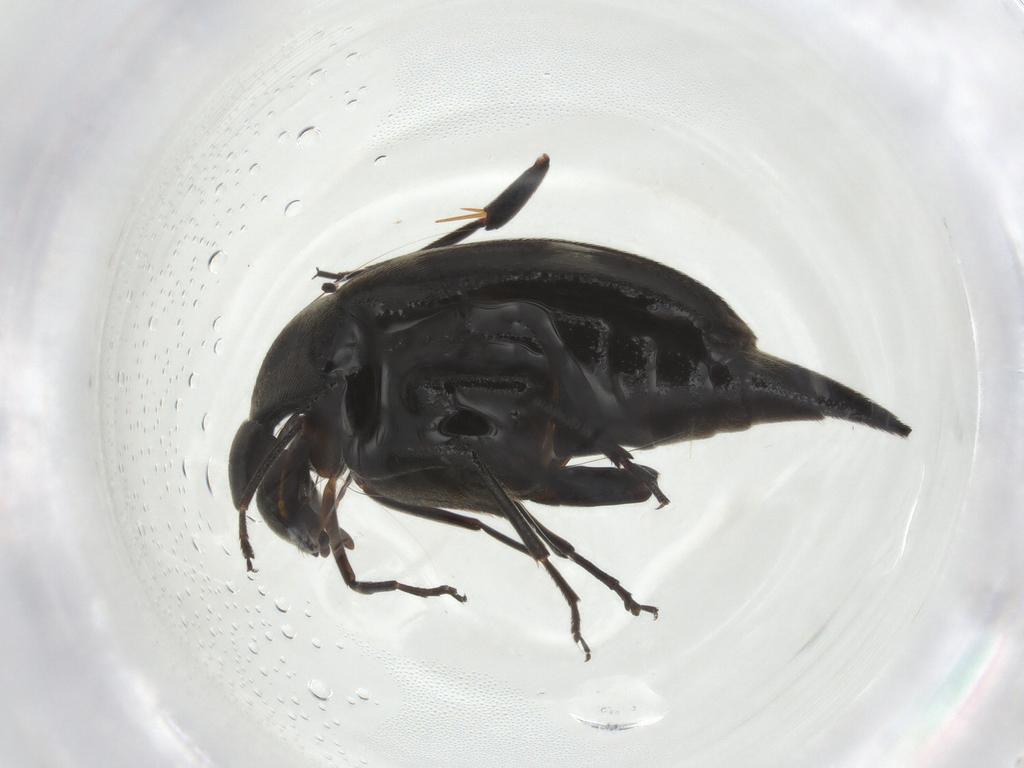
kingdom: Animalia
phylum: Arthropoda
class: Insecta
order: Coleoptera
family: Mordellidae
